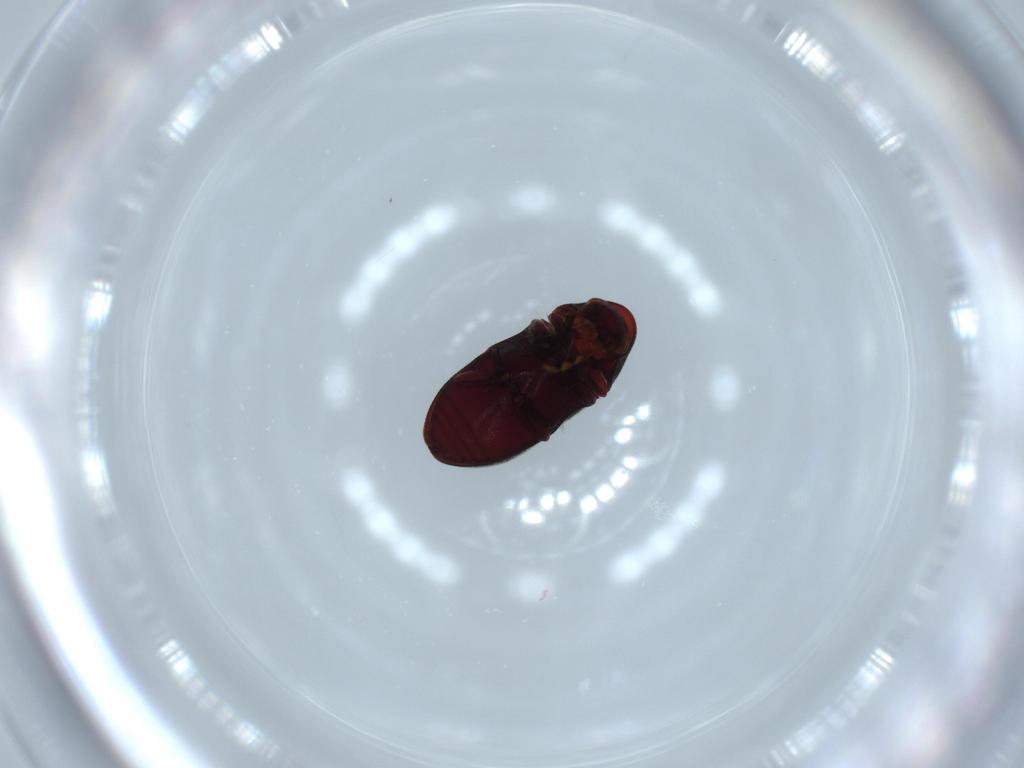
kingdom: Animalia
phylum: Arthropoda
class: Insecta
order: Coleoptera
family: Ptinidae
